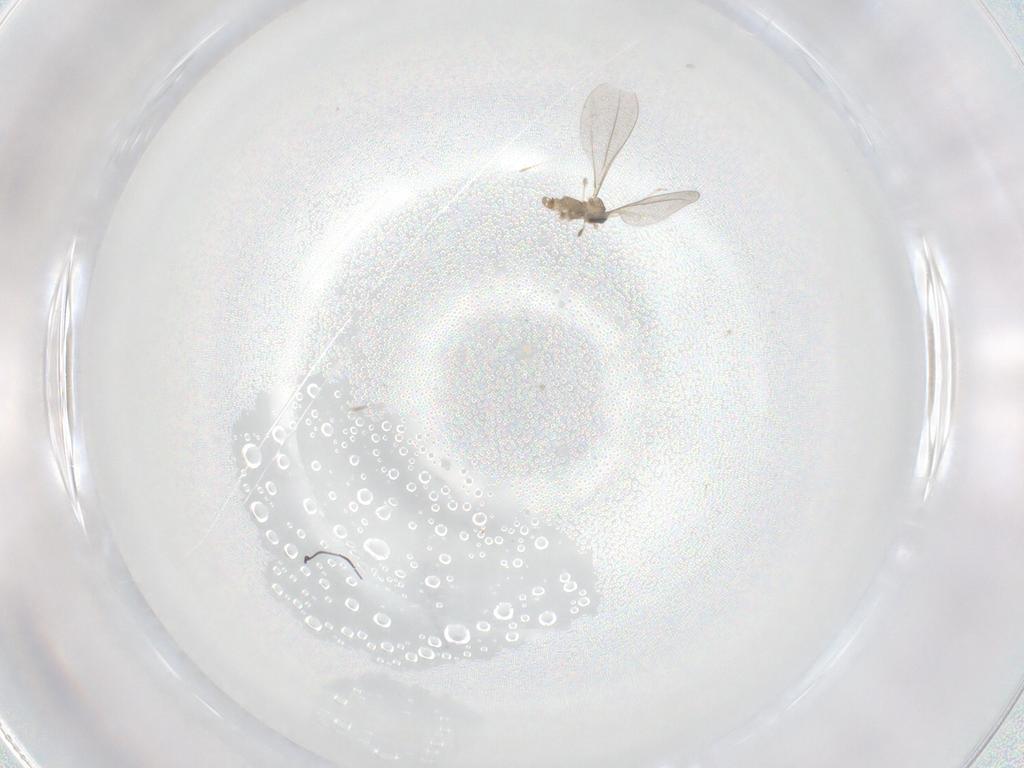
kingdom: Animalia
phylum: Arthropoda
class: Insecta
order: Diptera
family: Cecidomyiidae
